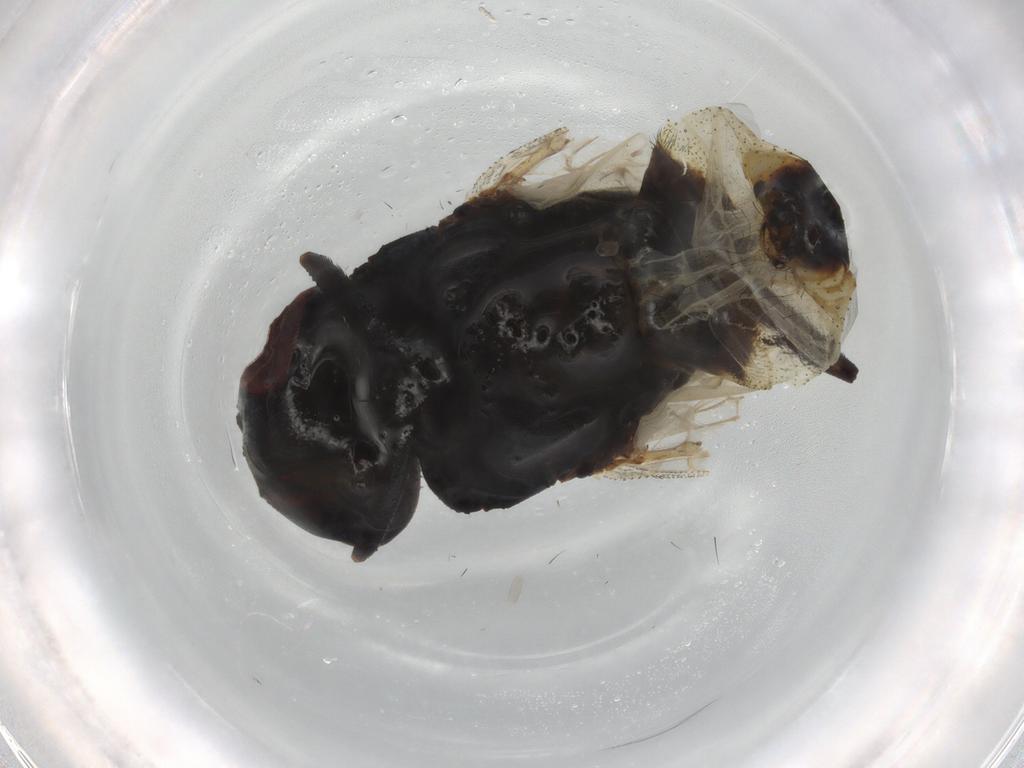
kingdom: Animalia
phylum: Arthropoda
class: Insecta
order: Diptera
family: Muscidae
